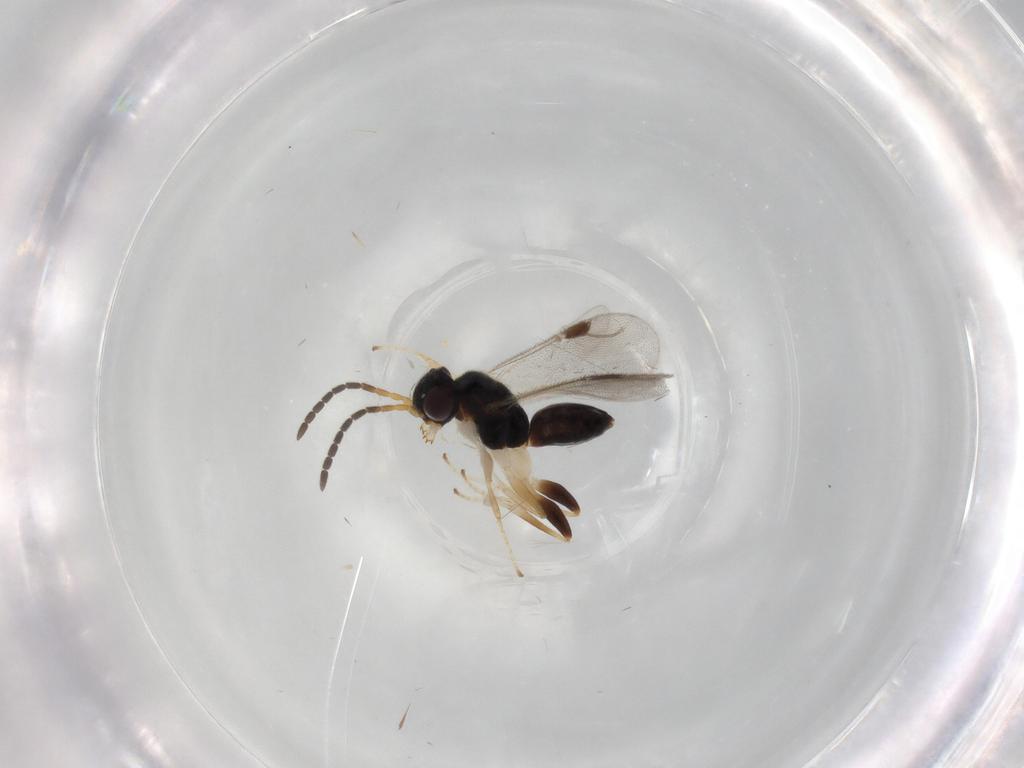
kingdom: Animalia
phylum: Arthropoda
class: Insecta
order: Hymenoptera
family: Dryinidae
